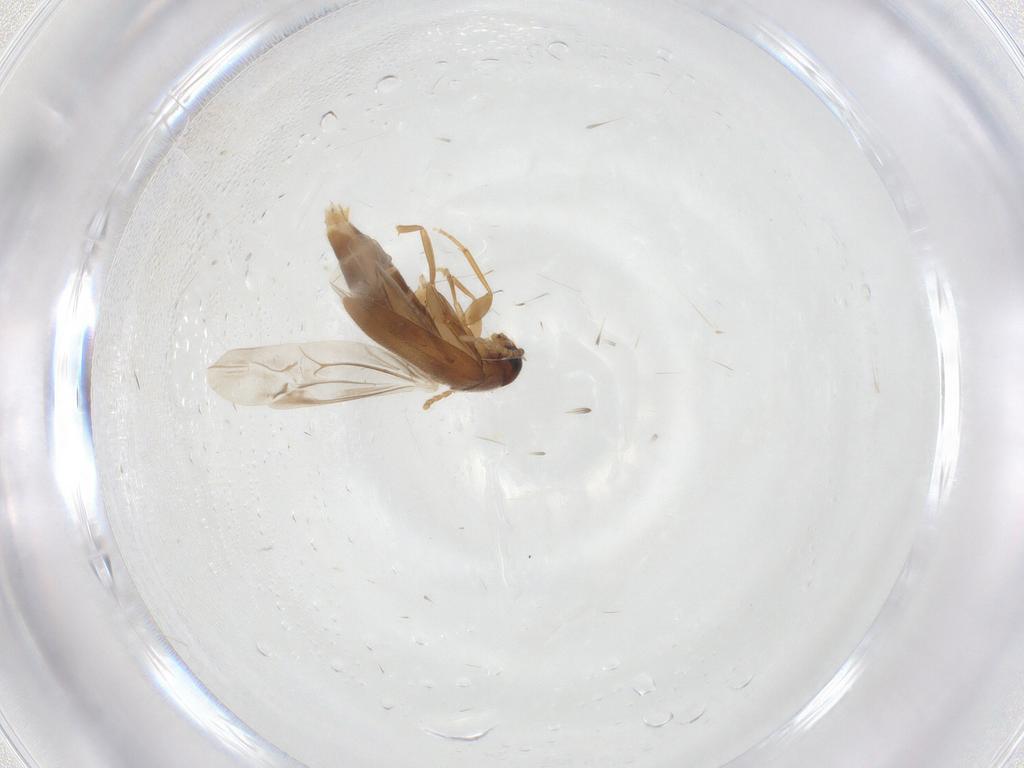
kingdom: Animalia
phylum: Arthropoda
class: Insecta
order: Coleoptera
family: Scraptiidae
